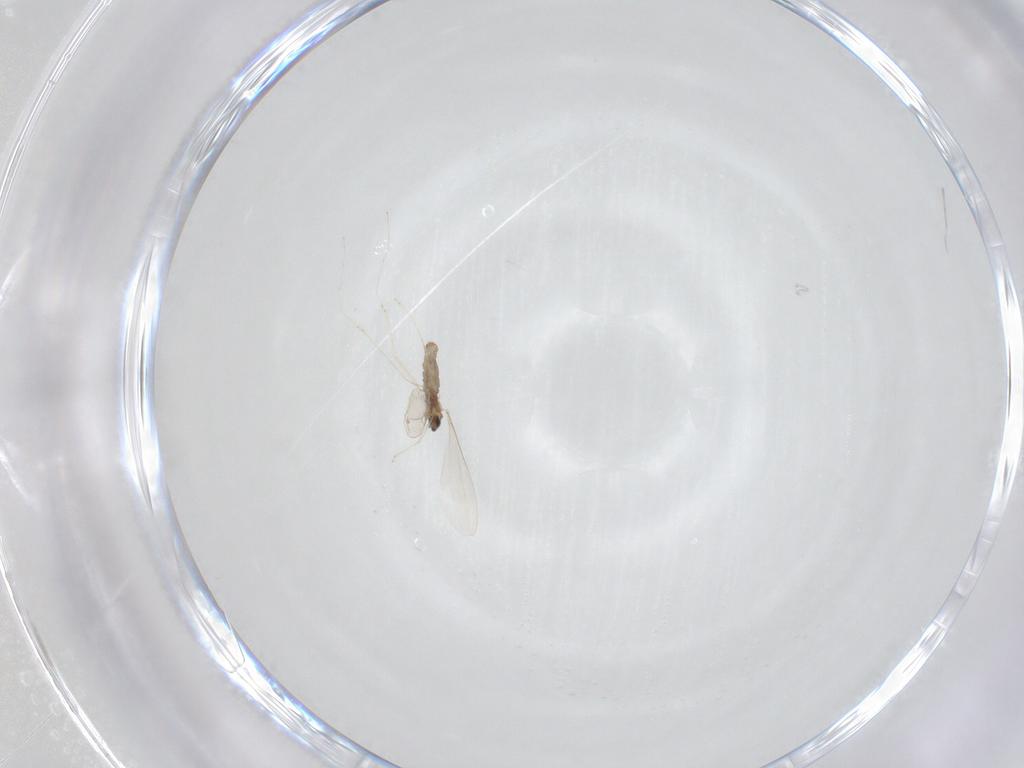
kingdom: Animalia
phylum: Arthropoda
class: Insecta
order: Diptera
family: Cecidomyiidae
